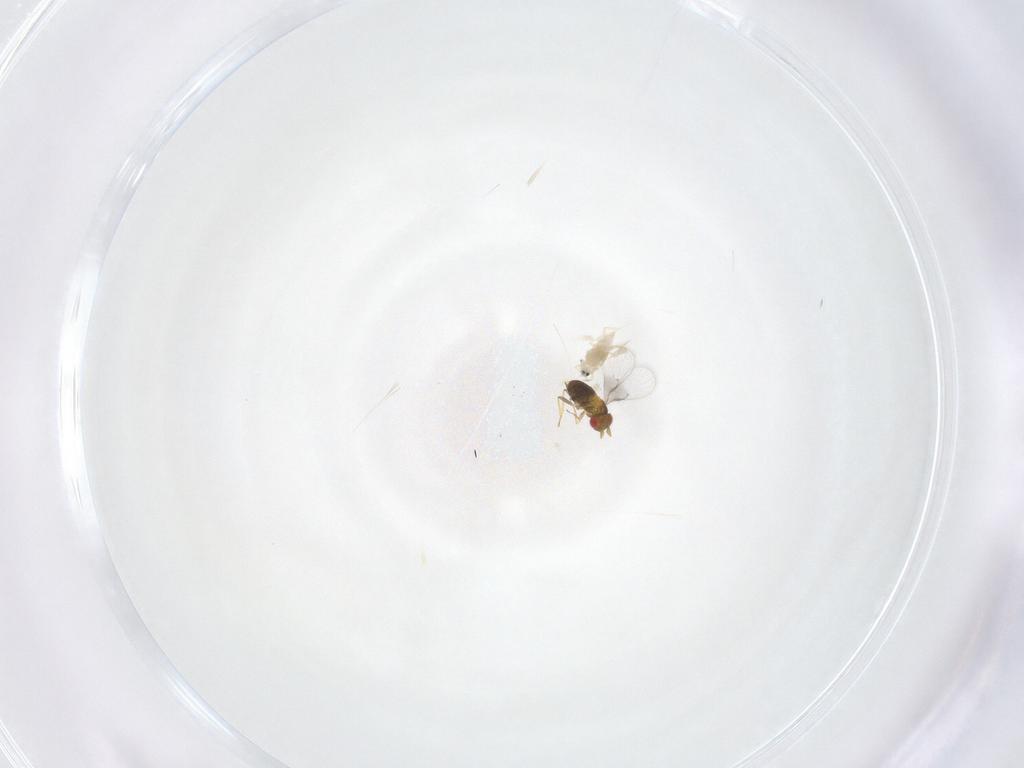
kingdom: Animalia
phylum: Arthropoda
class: Insecta
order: Hymenoptera
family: Trichogrammatidae
